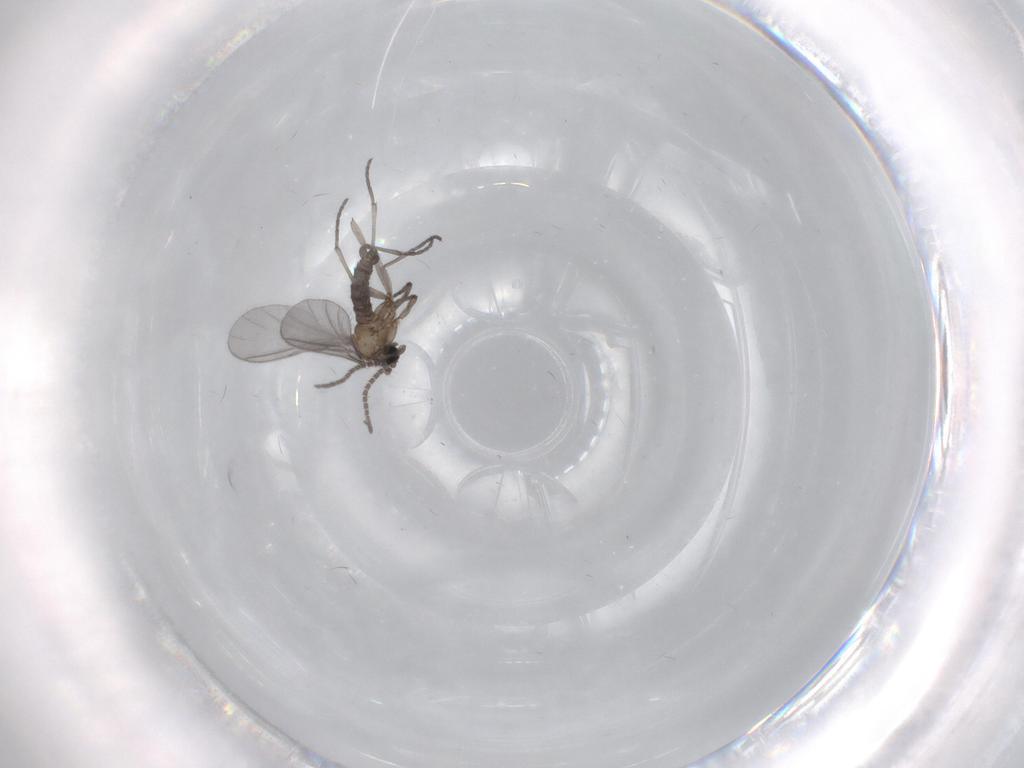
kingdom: Animalia
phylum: Arthropoda
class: Insecta
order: Diptera
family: Sciaridae
